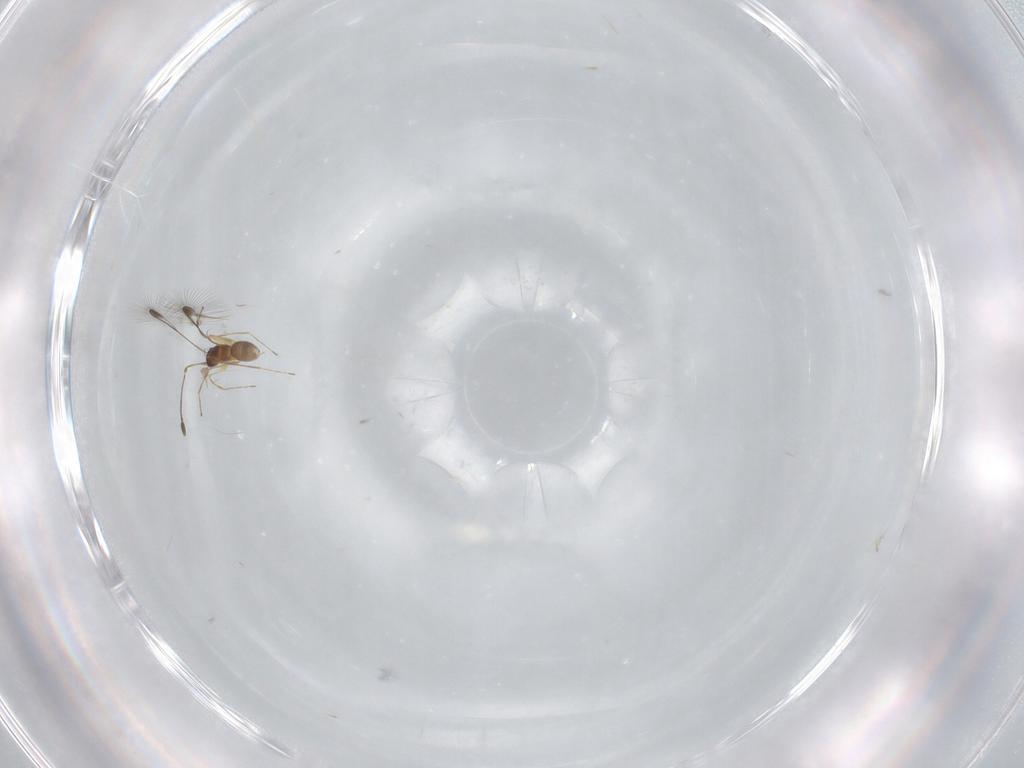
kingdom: Animalia
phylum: Arthropoda
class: Insecta
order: Hymenoptera
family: Mymaridae
